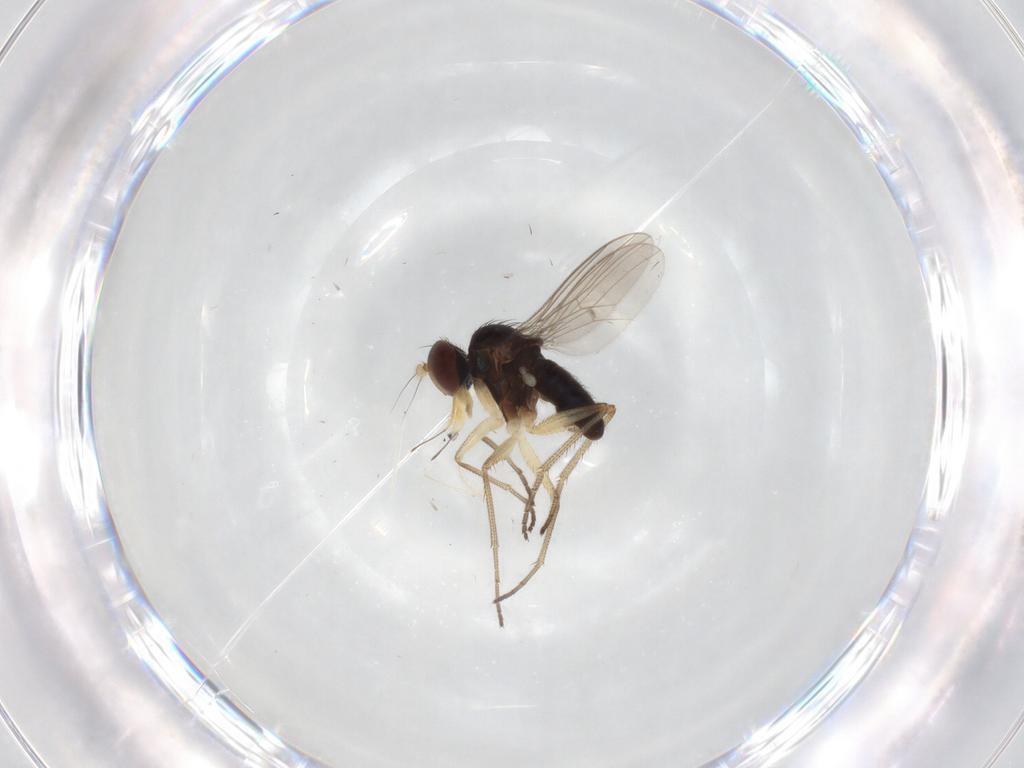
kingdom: Animalia
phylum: Arthropoda
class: Insecta
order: Diptera
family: Dolichopodidae
